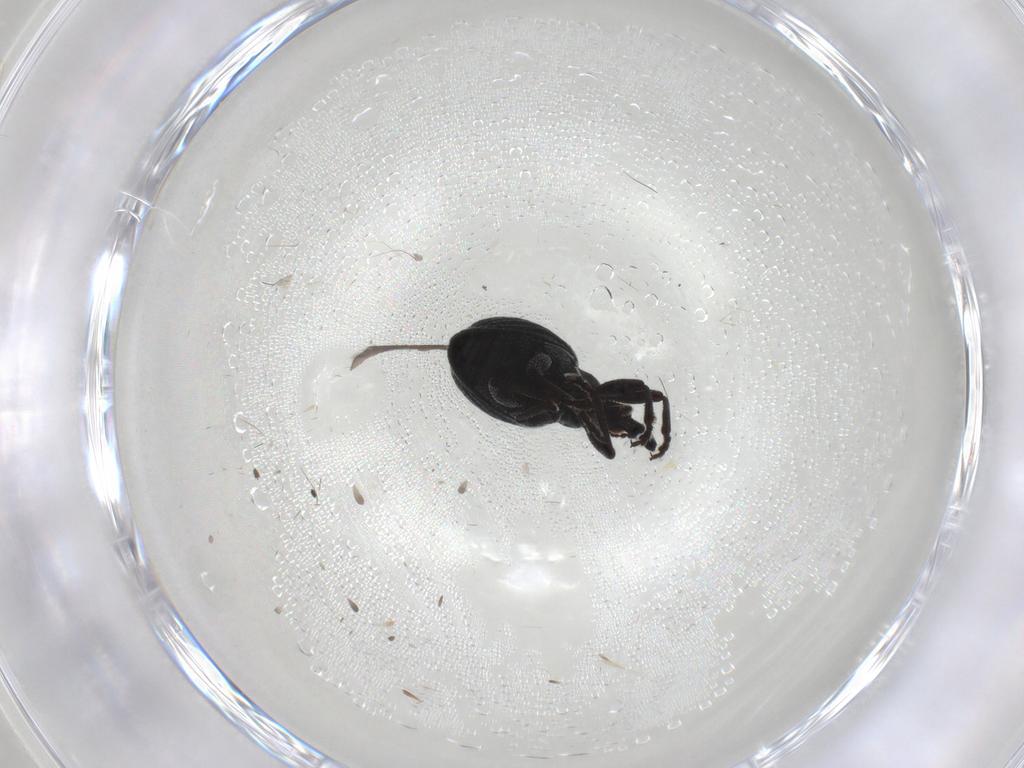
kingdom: Animalia
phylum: Arthropoda
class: Insecta
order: Coleoptera
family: Brentidae
